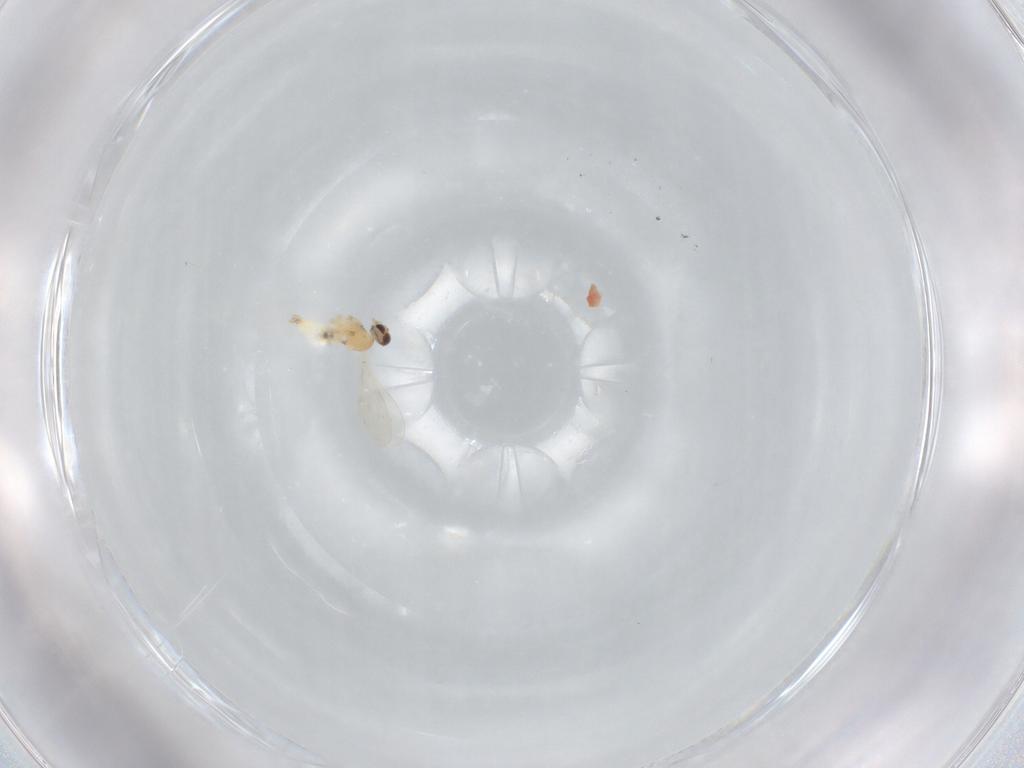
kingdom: Animalia
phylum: Arthropoda
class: Insecta
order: Diptera
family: Cecidomyiidae
